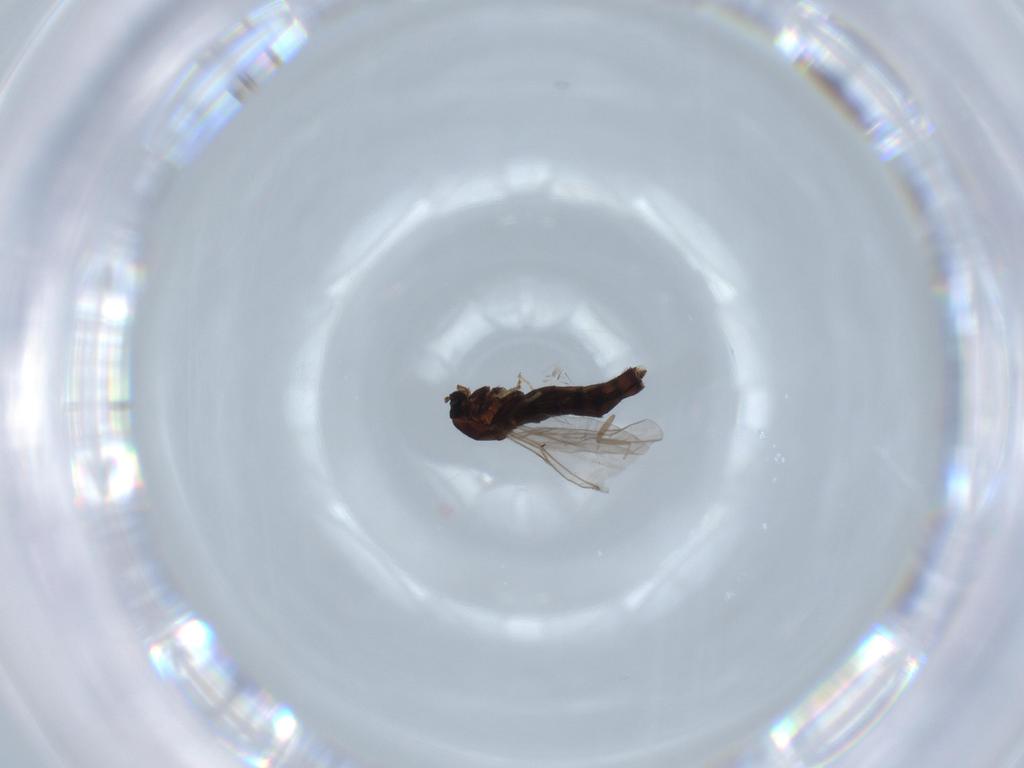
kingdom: Animalia
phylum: Arthropoda
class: Insecta
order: Diptera
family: Scatopsidae
